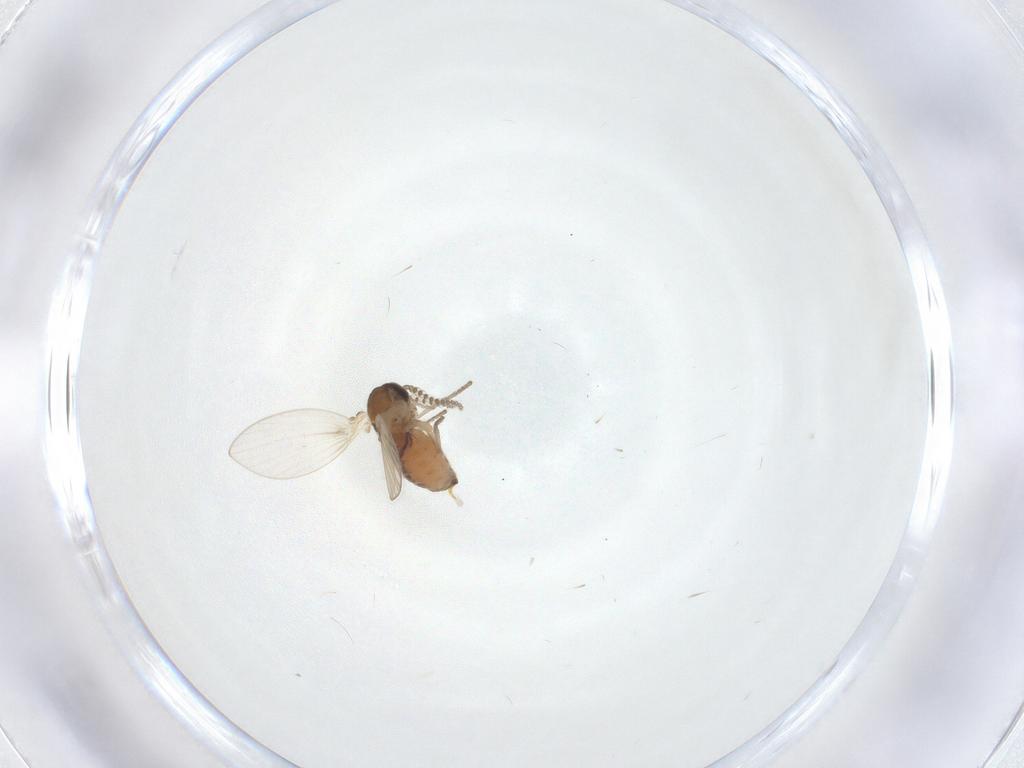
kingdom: Animalia
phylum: Arthropoda
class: Insecta
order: Diptera
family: Psychodidae
